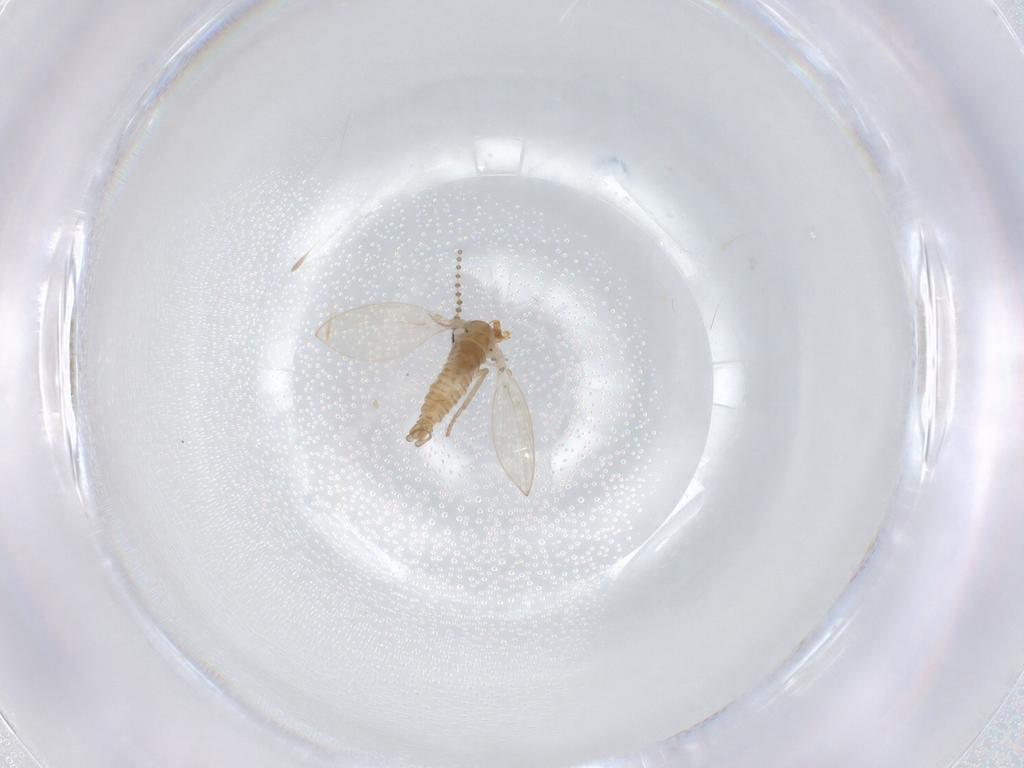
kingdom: Animalia
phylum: Arthropoda
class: Insecta
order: Diptera
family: Psychodidae
